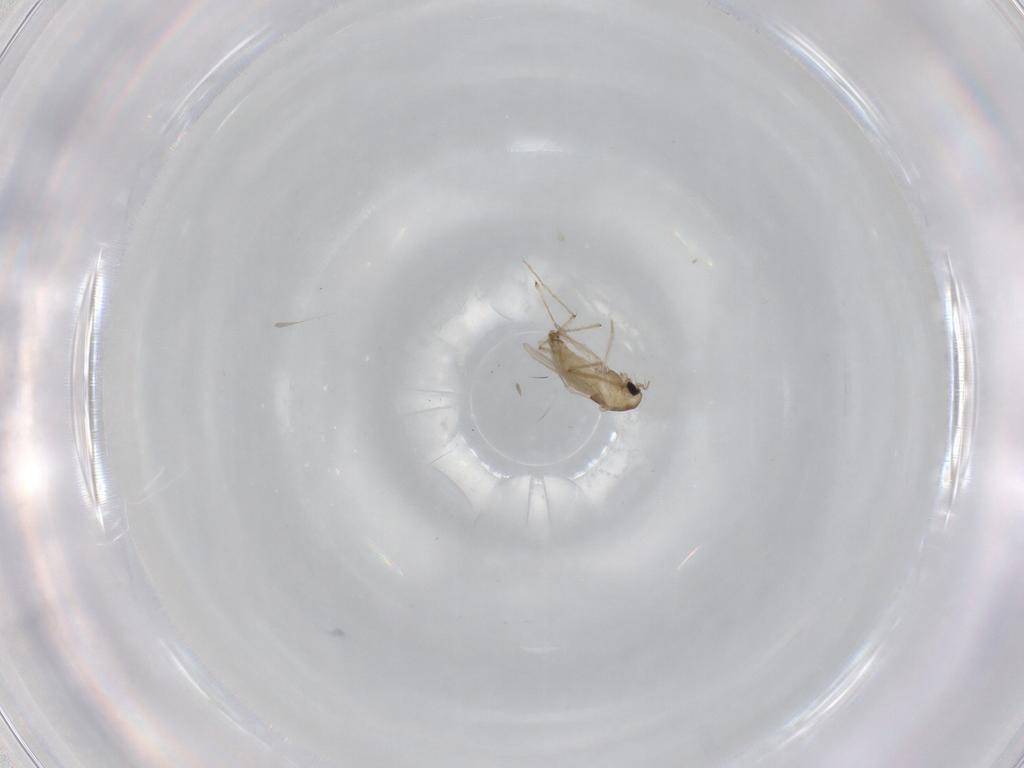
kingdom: Animalia
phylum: Arthropoda
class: Insecta
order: Diptera
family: Chironomidae
